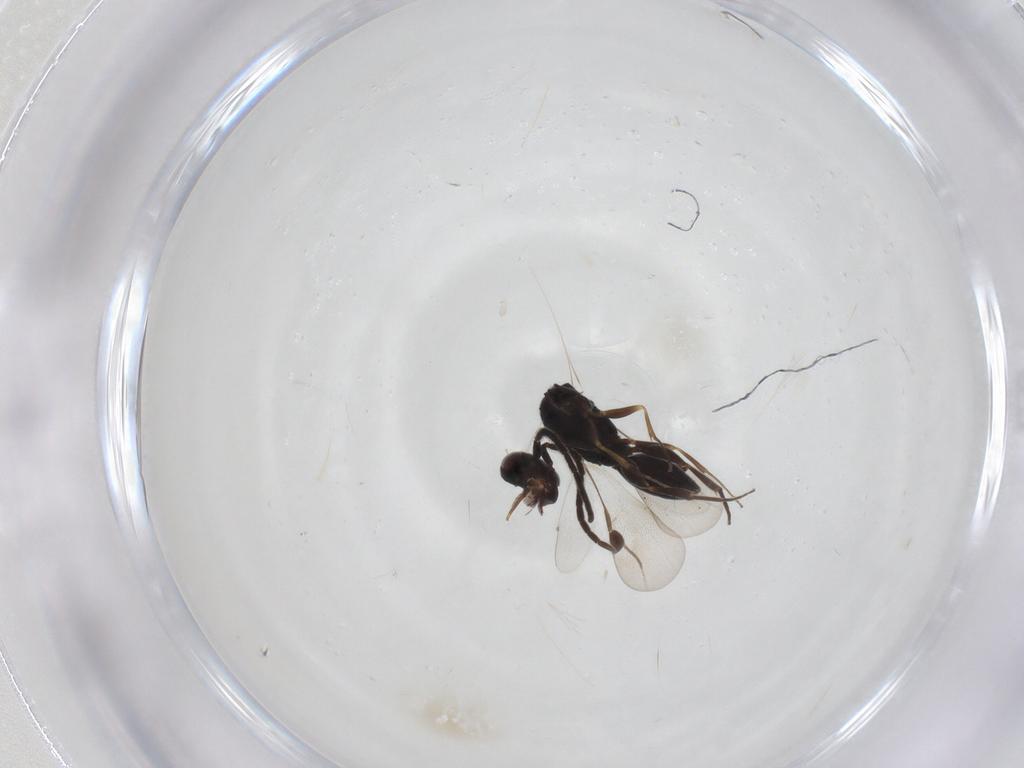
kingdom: Animalia
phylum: Arthropoda
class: Insecta
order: Hymenoptera
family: Megaspilidae
